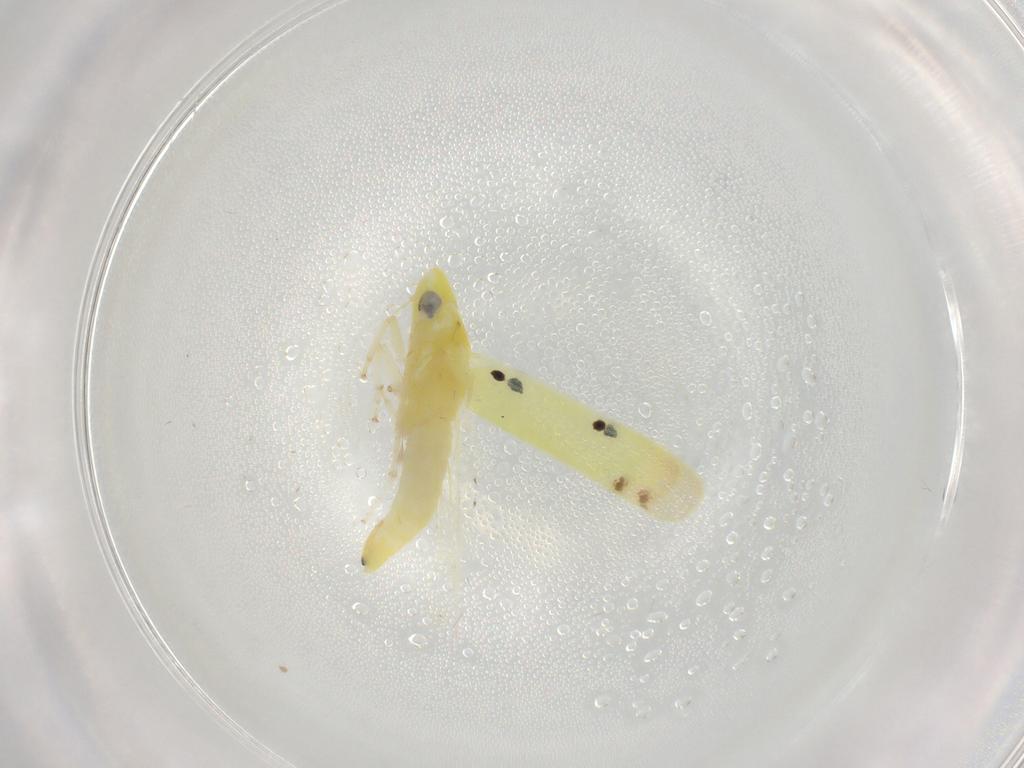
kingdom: Animalia
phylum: Arthropoda
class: Insecta
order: Hemiptera
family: Cicadellidae
